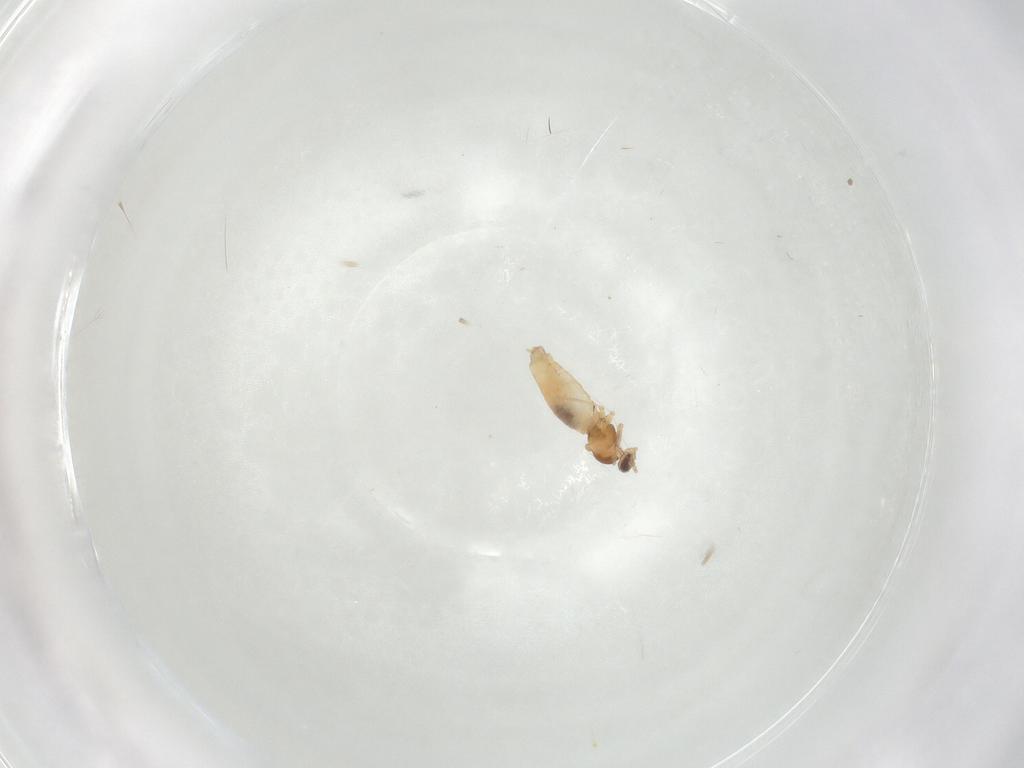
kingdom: Animalia
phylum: Arthropoda
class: Insecta
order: Diptera
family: Cecidomyiidae
